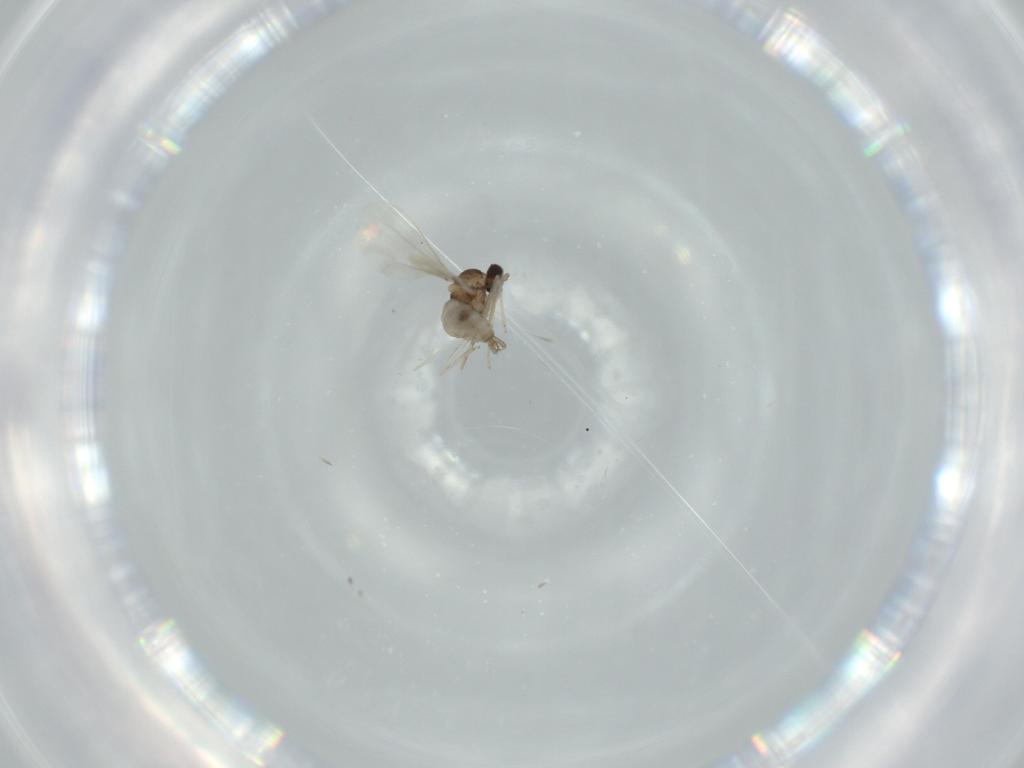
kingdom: Animalia
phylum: Arthropoda
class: Insecta
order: Diptera
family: Cecidomyiidae
